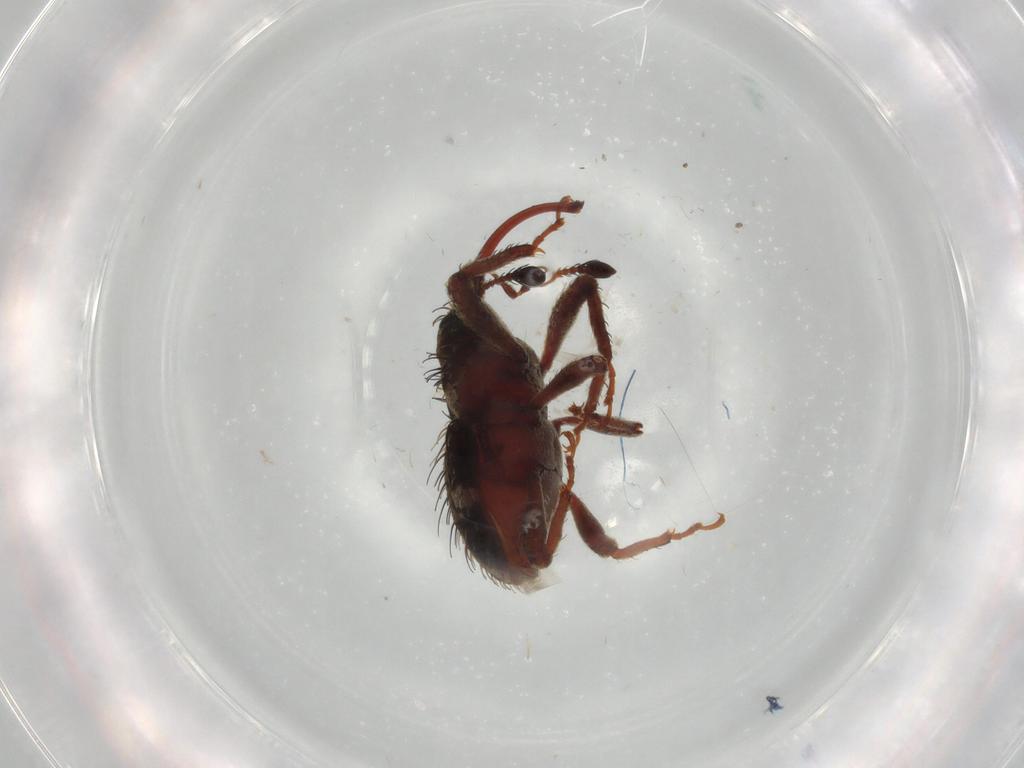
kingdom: Animalia
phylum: Arthropoda
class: Insecta
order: Coleoptera
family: Curculionidae
